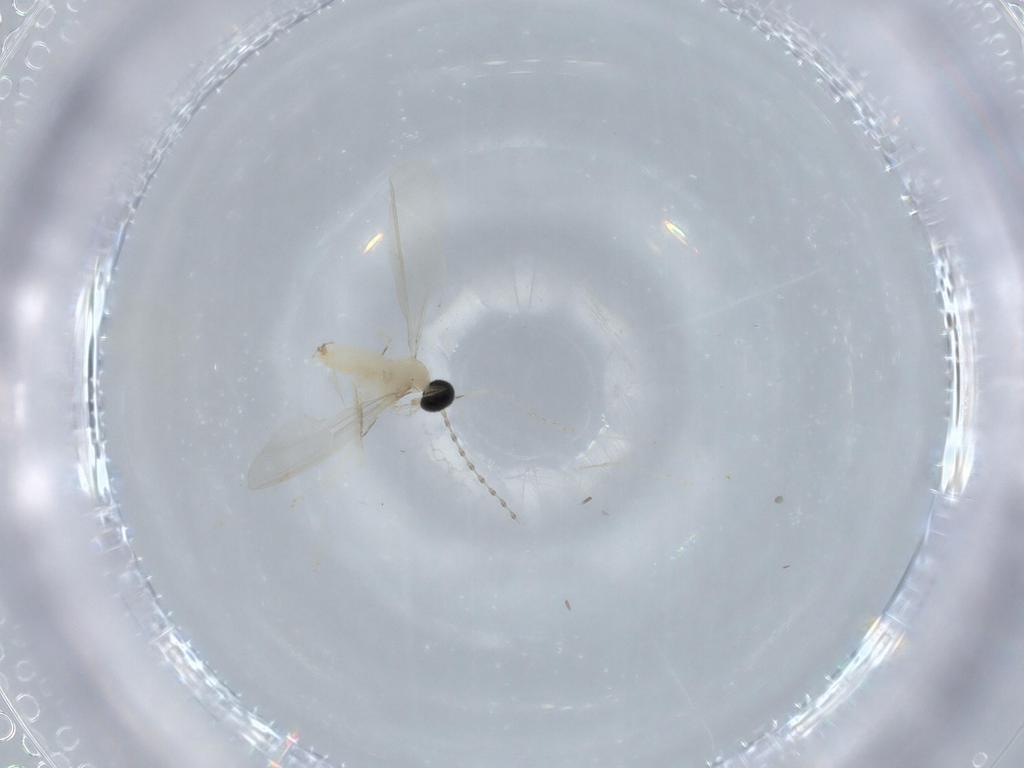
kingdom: Animalia
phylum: Arthropoda
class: Insecta
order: Diptera
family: Cecidomyiidae
